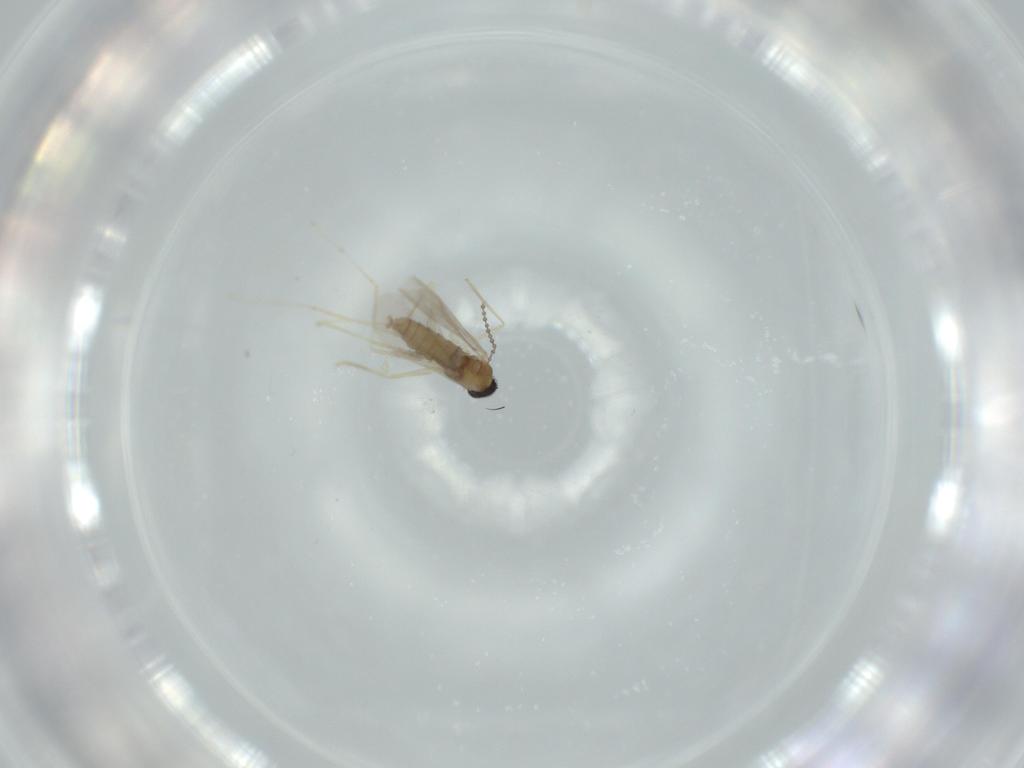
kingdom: Animalia
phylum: Arthropoda
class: Insecta
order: Diptera
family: Cecidomyiidae
